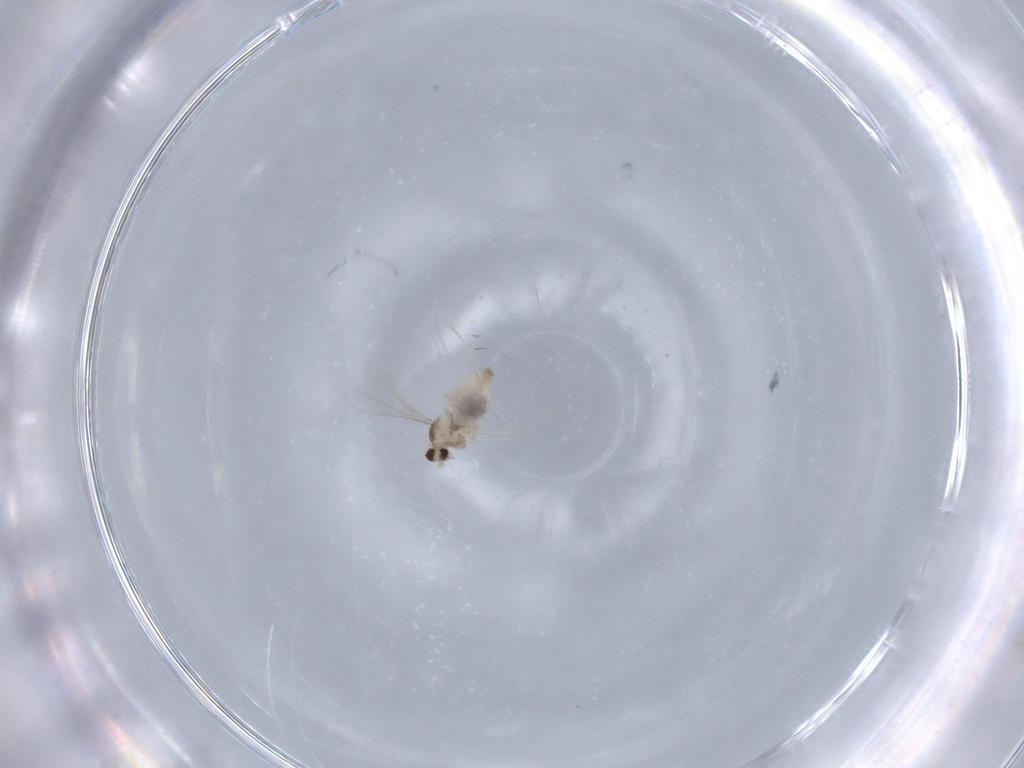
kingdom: Animalia
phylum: Arthropoda
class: Insecta
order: Diptera
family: Cecidomyiidae
